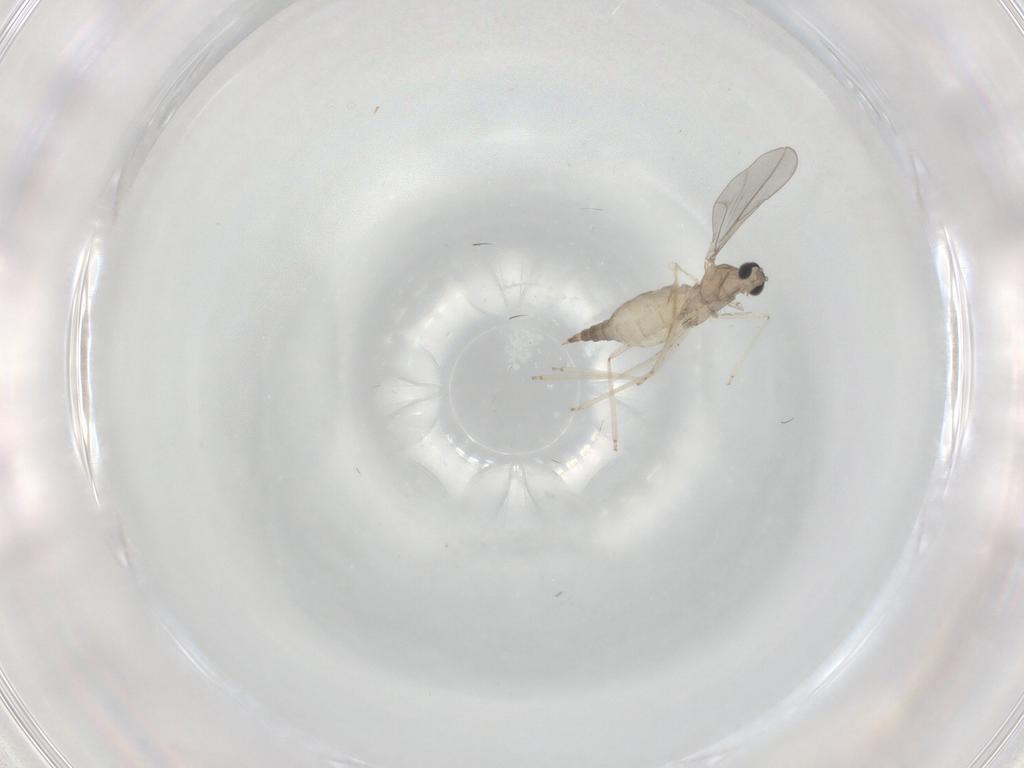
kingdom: Animalia
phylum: Arthropoda
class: Insecta
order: Diptera
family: Cecidomyiidae
